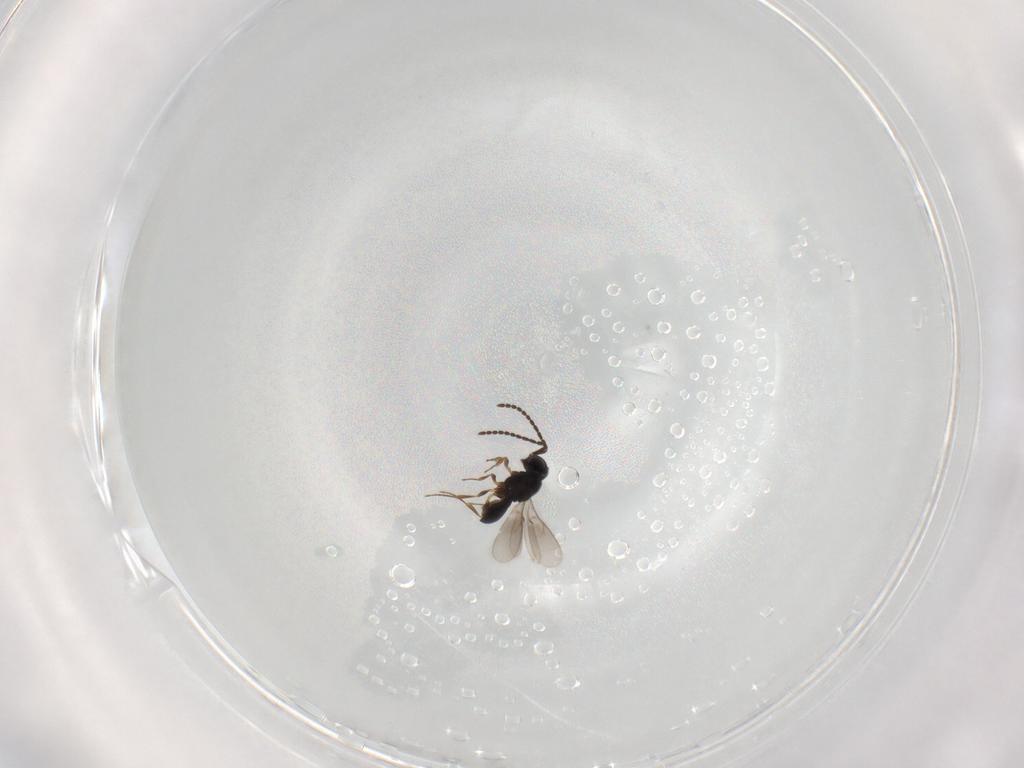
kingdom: Animalia
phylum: Arthropoda
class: Insecta
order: Hymenoptera
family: Scelionidae
